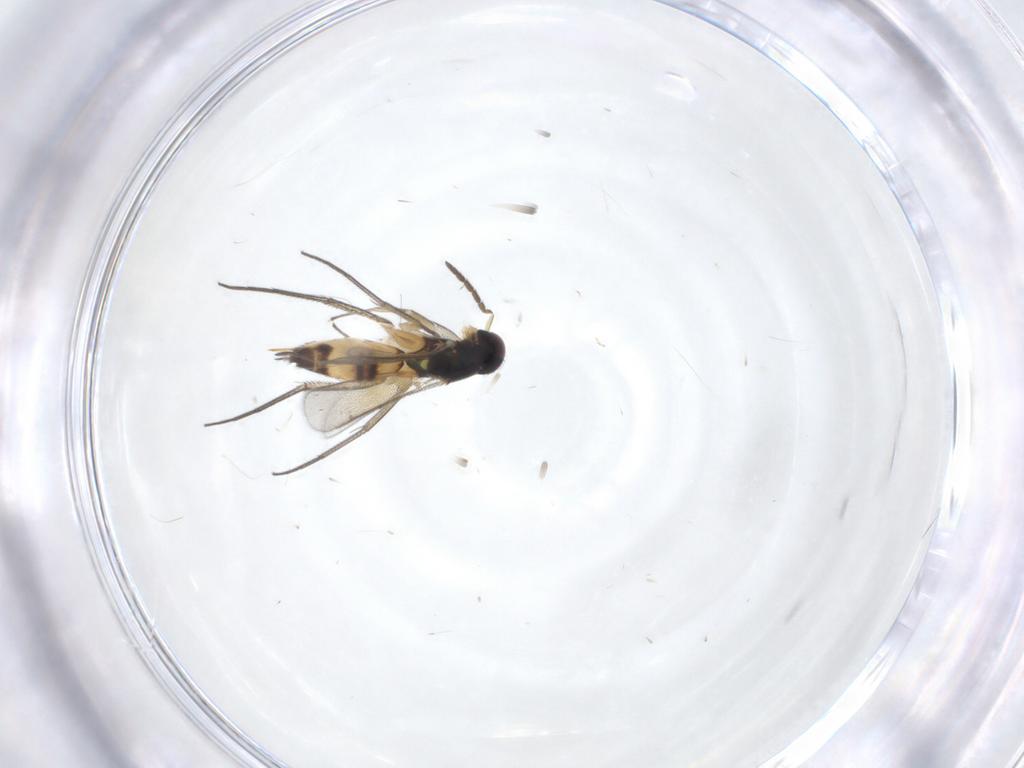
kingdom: Animalia
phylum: Arthropoda
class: Insecta
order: Hymenoptera
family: Eulophidae
